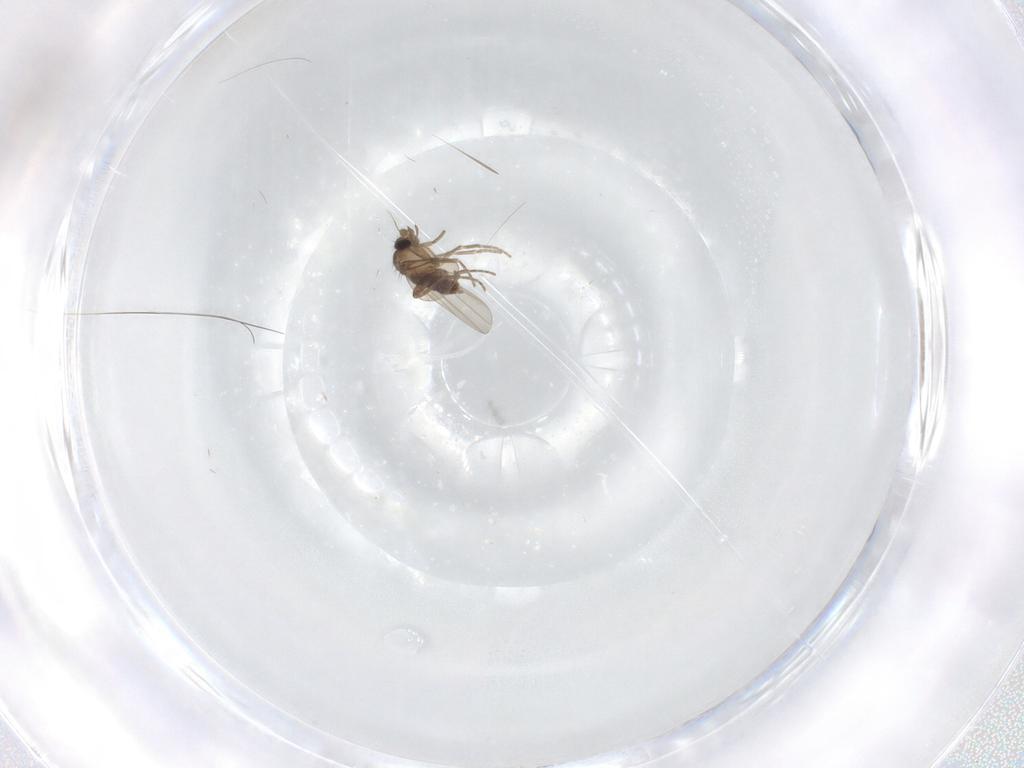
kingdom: Animalia
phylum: Arthropoda
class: Insecta
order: Diptera
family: Phoridae
